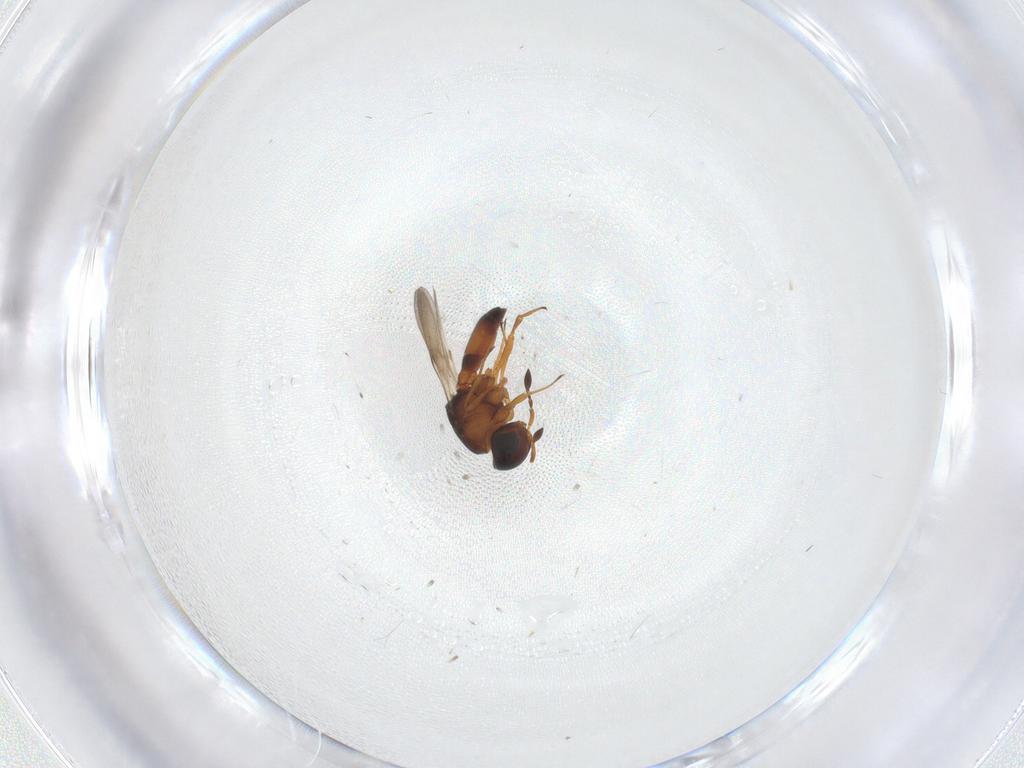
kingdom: Animalia
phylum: Arthropoda
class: Arachnida
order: Araneae
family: Pholcidae
